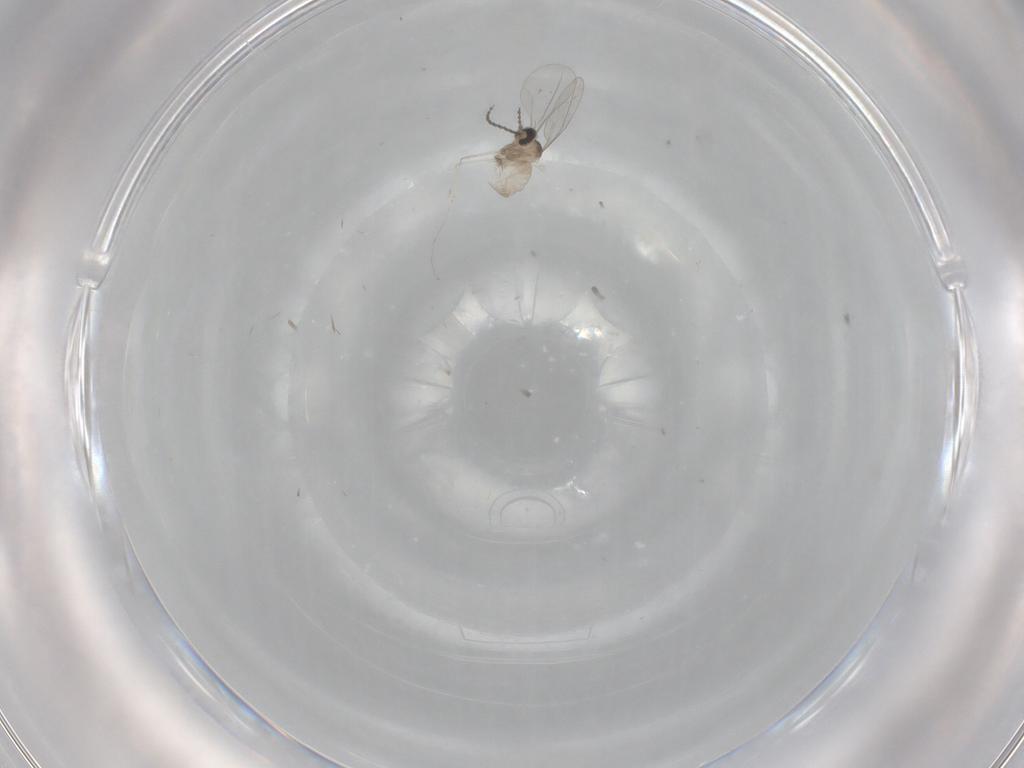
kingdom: Animalia
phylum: Arthropoda
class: Insecta
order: Diptera
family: Cecidomyiidae
